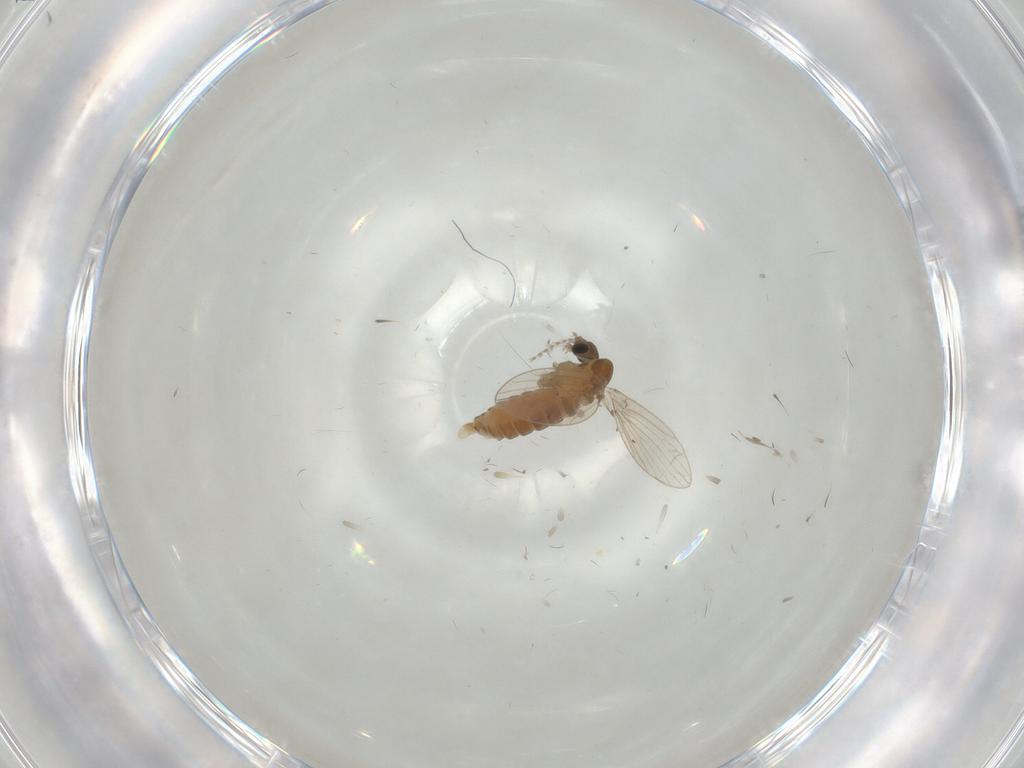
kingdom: Animalia
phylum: Arthropoda
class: Insecta
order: Diptera
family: Psychodidae
